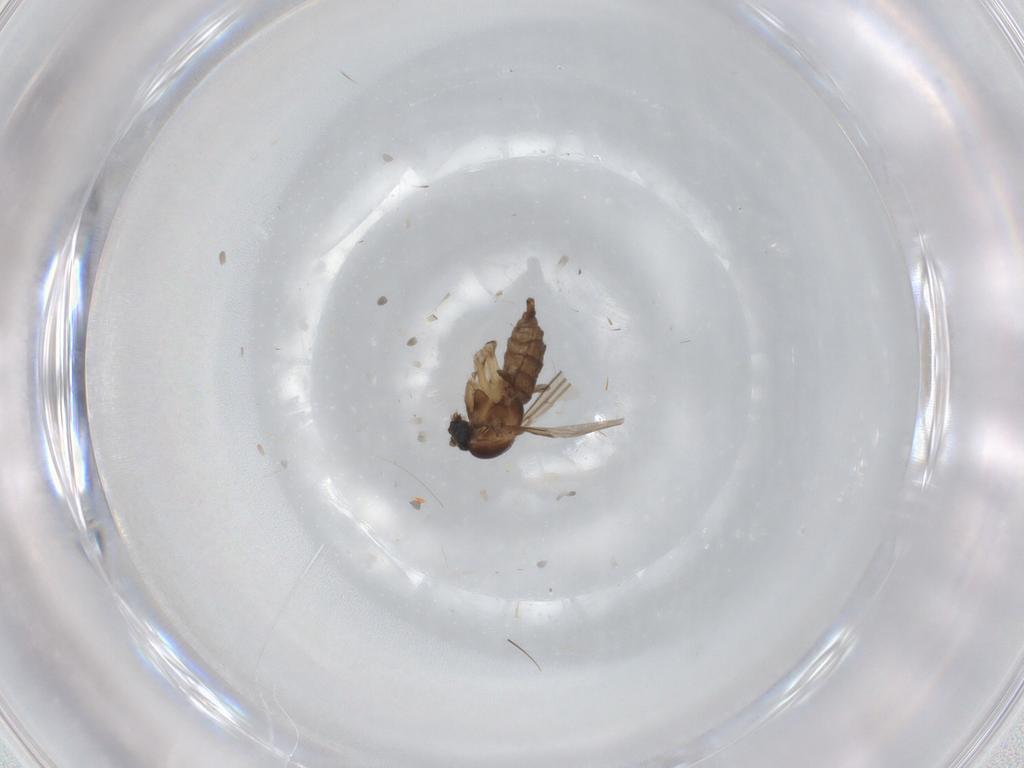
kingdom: Animalia
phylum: Arthropoda
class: Insecta
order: Diptera
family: Sciaridae
